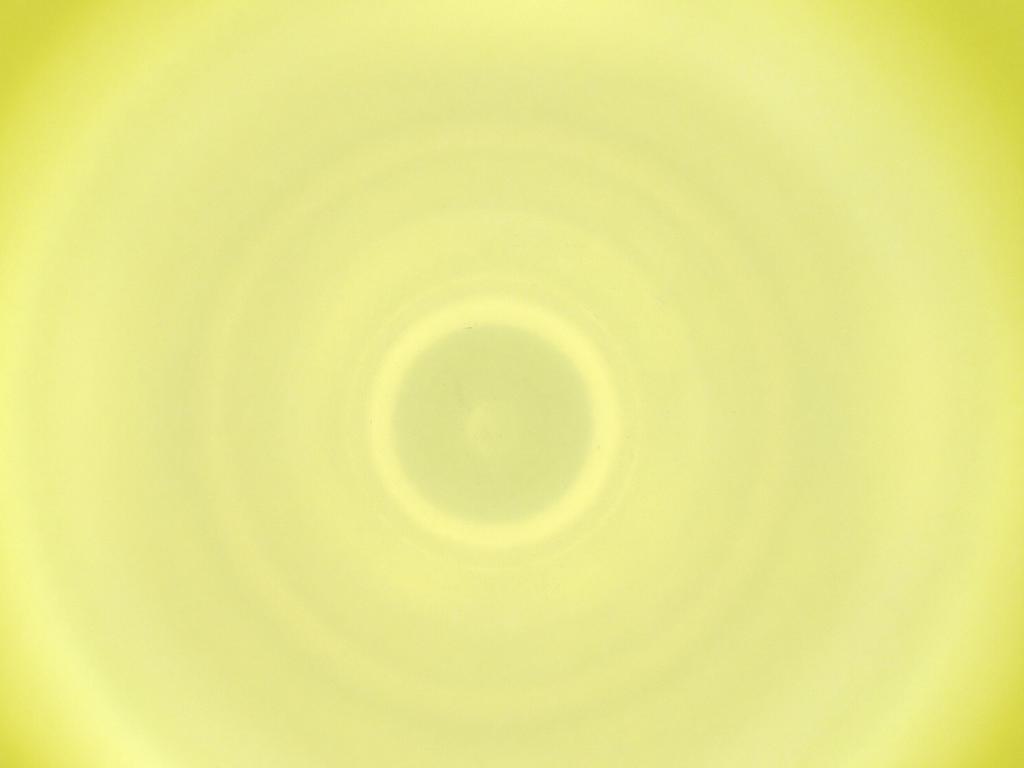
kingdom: Animalia
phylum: Arthropoda
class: Insecta
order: Diptera
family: Cecidomyiidae
